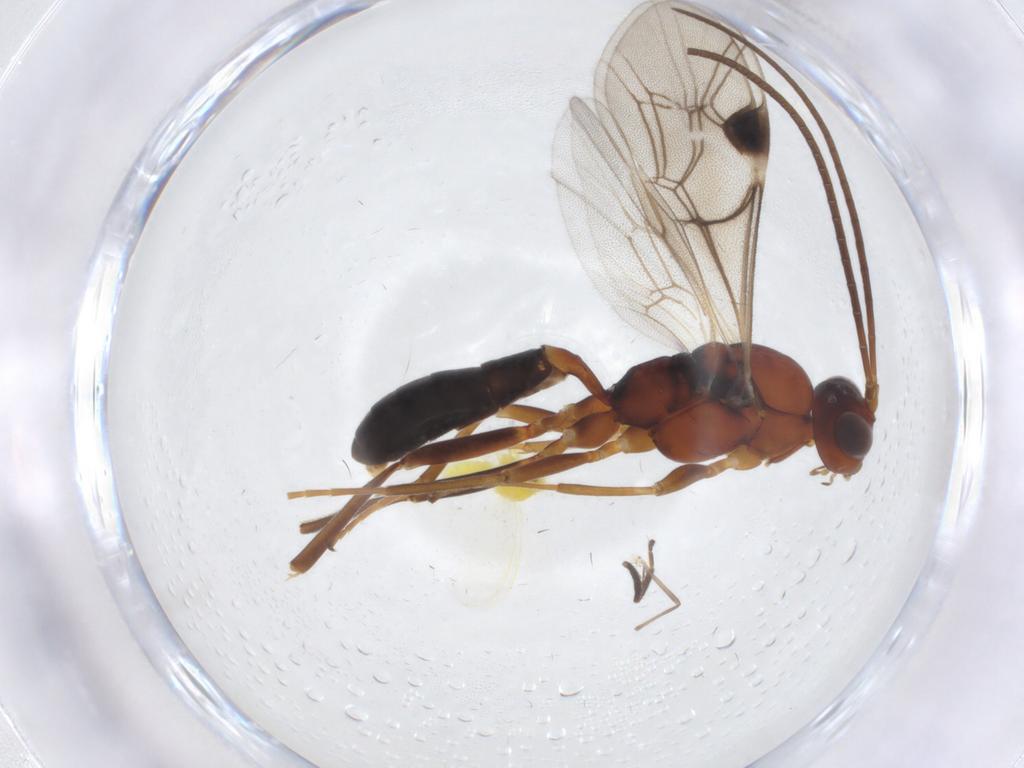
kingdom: Animalia
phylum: Arthropoda
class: Insecta
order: Hymenoptera
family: Ichneumonidae
